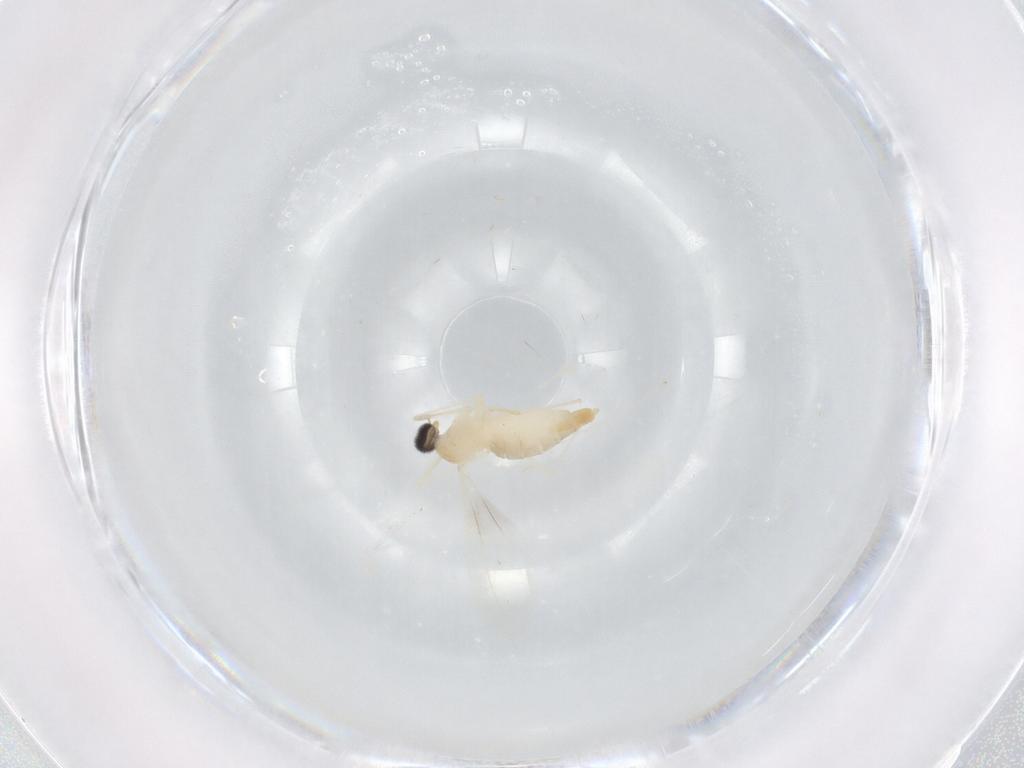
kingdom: Animalia
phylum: Arthropoda
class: Insecta
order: Diptera
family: Cecidomyiidae
